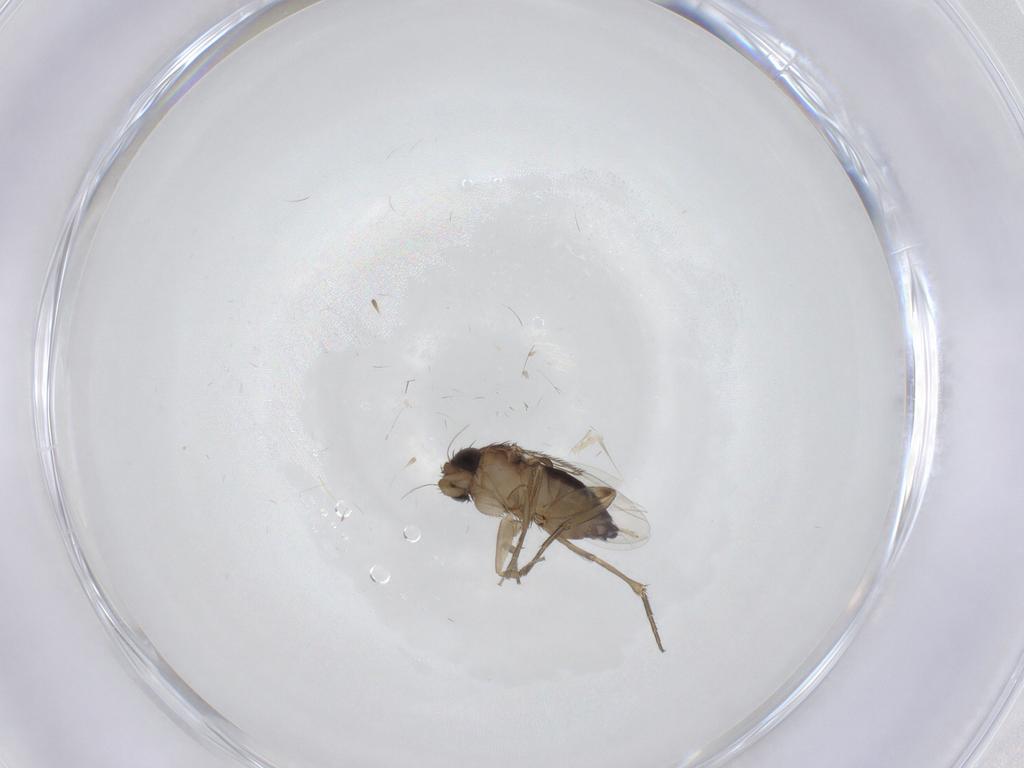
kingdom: Animalia
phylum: Arthropoda
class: Insecta
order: Diptera
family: Phoridae
